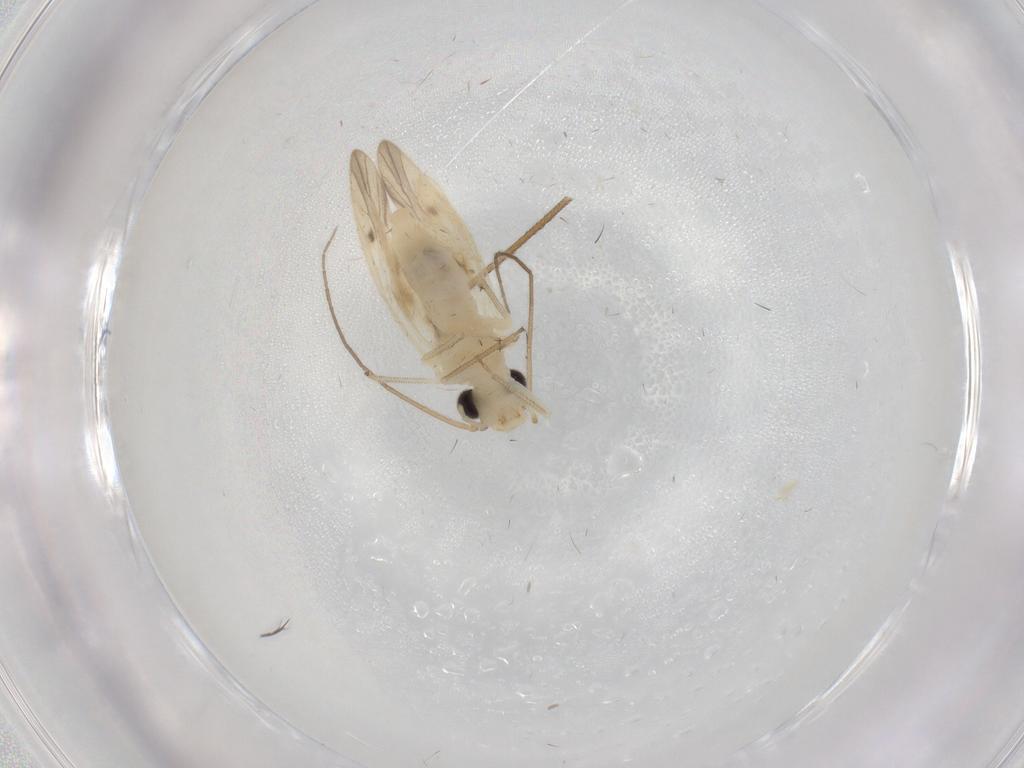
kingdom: Animalia
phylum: Arthropoda
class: Insecta
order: Psocodea
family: Caeciliusidae
